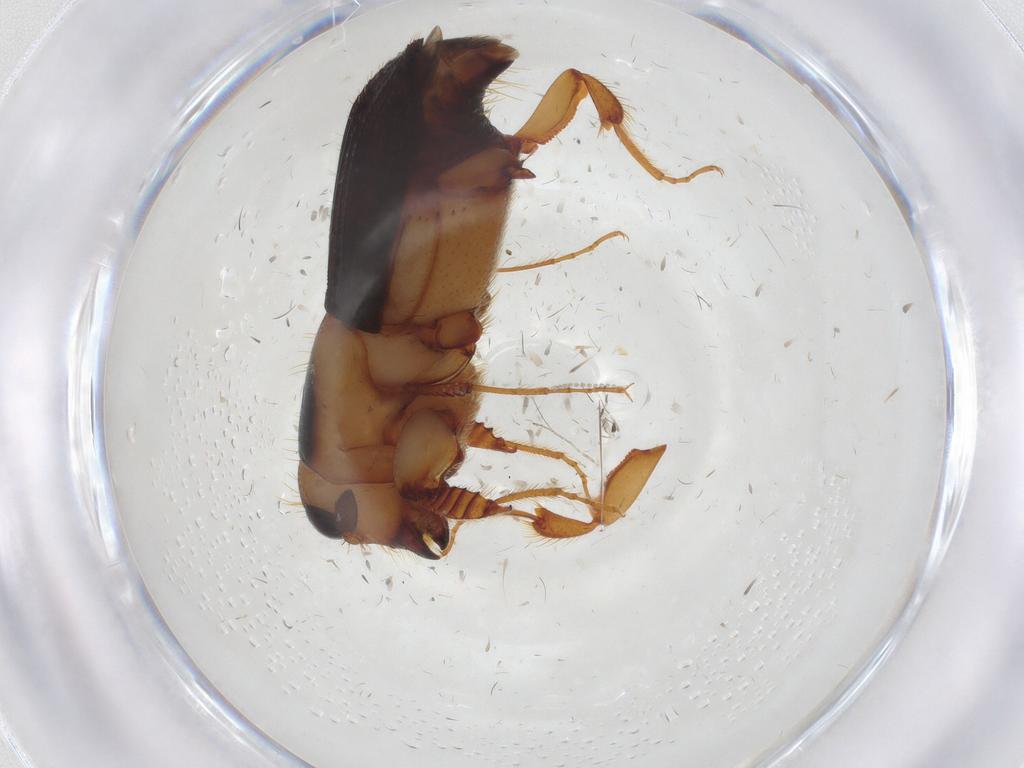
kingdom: Animalia
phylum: Arthropoda
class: Insecta
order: Coleoptera
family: Curculionidae
